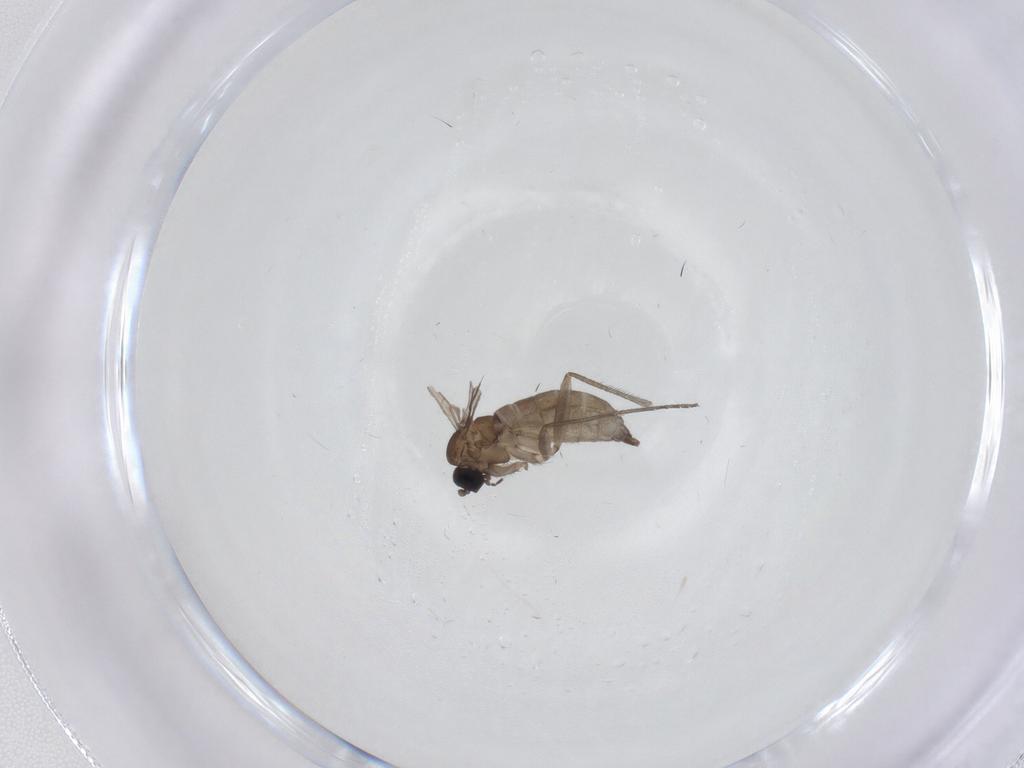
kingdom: Animalia
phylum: Arthropoda
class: Insecta
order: Diptera
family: Sciaridae
